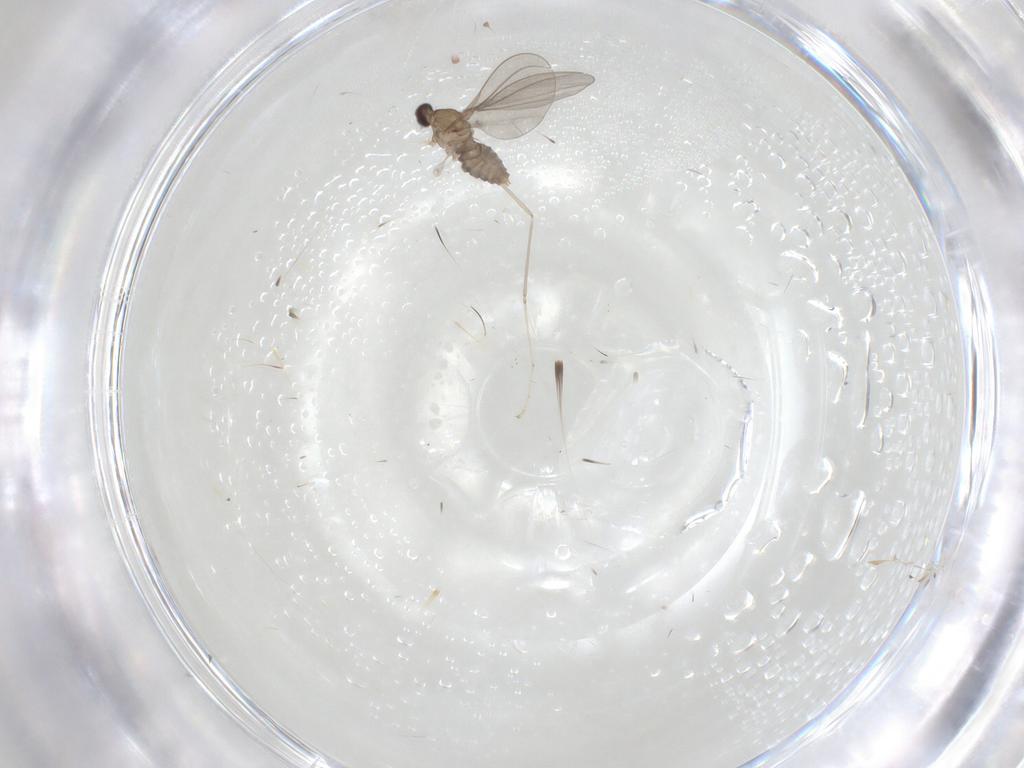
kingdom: Animalia
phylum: Arthropoda
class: Insecta
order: Diptera
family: Cecidomyiidae
